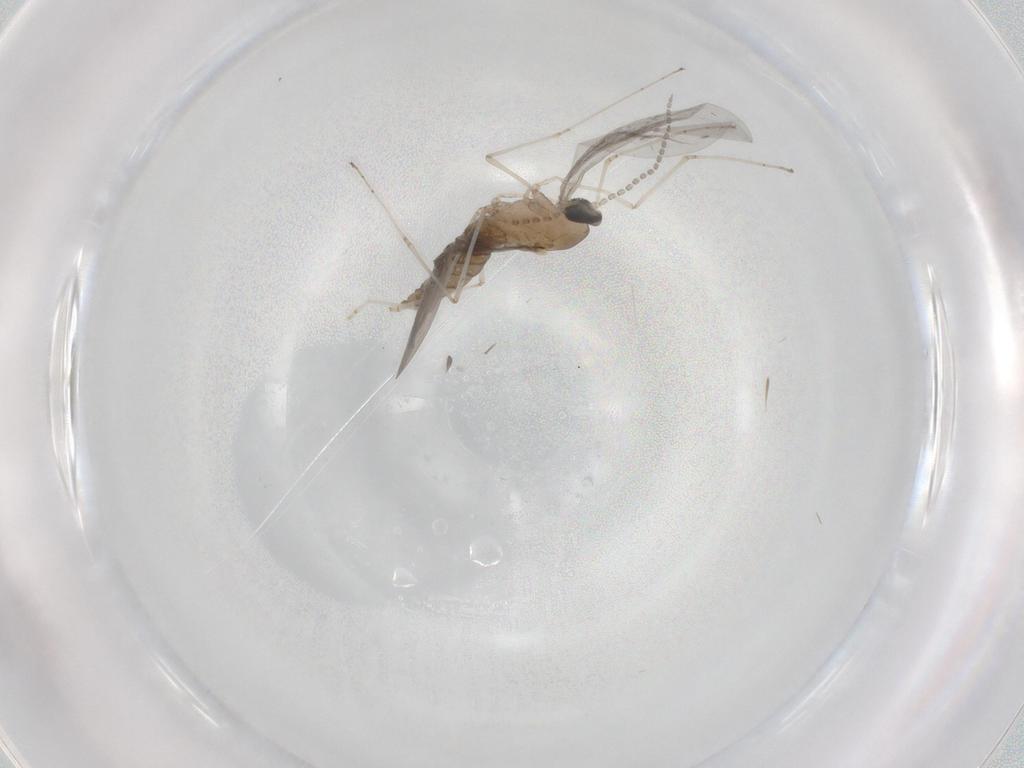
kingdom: Animalia
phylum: Arthropoda
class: Insecta
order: Diptera
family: Cecidomyiidae
